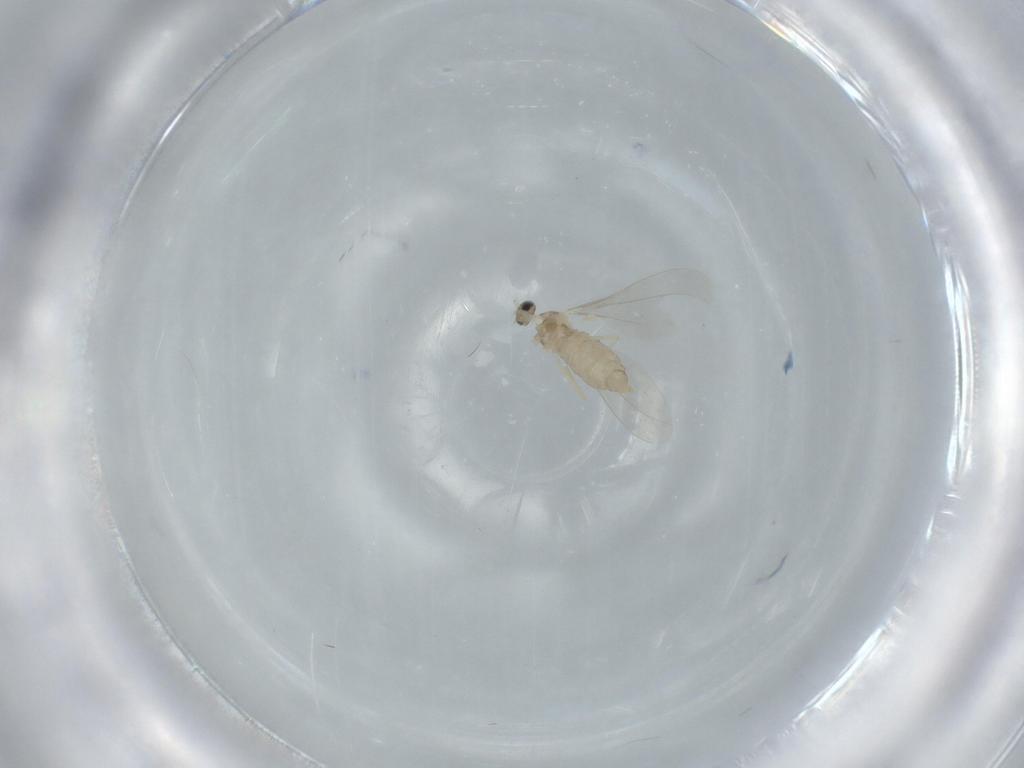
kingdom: Animalia
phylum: Arthropoda
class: Insecta
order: Diptera
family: Cecidomyiidae
